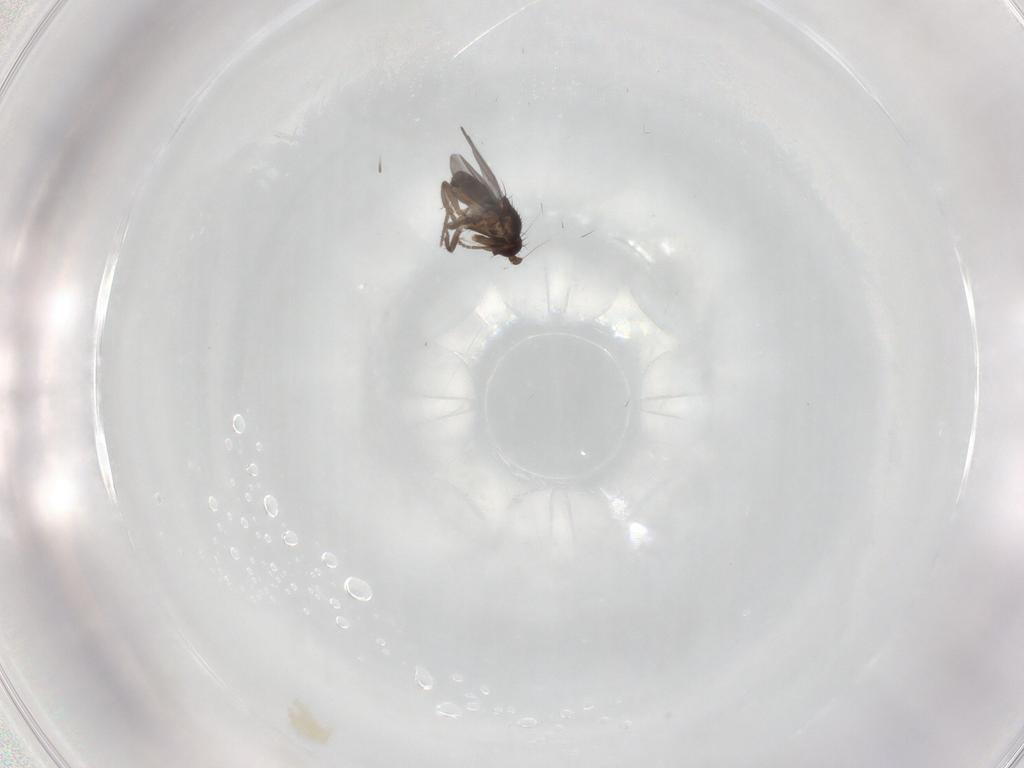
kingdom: Animalia
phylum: Arthropoda
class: Insecta
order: Diptera
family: Sphaeroceridae
